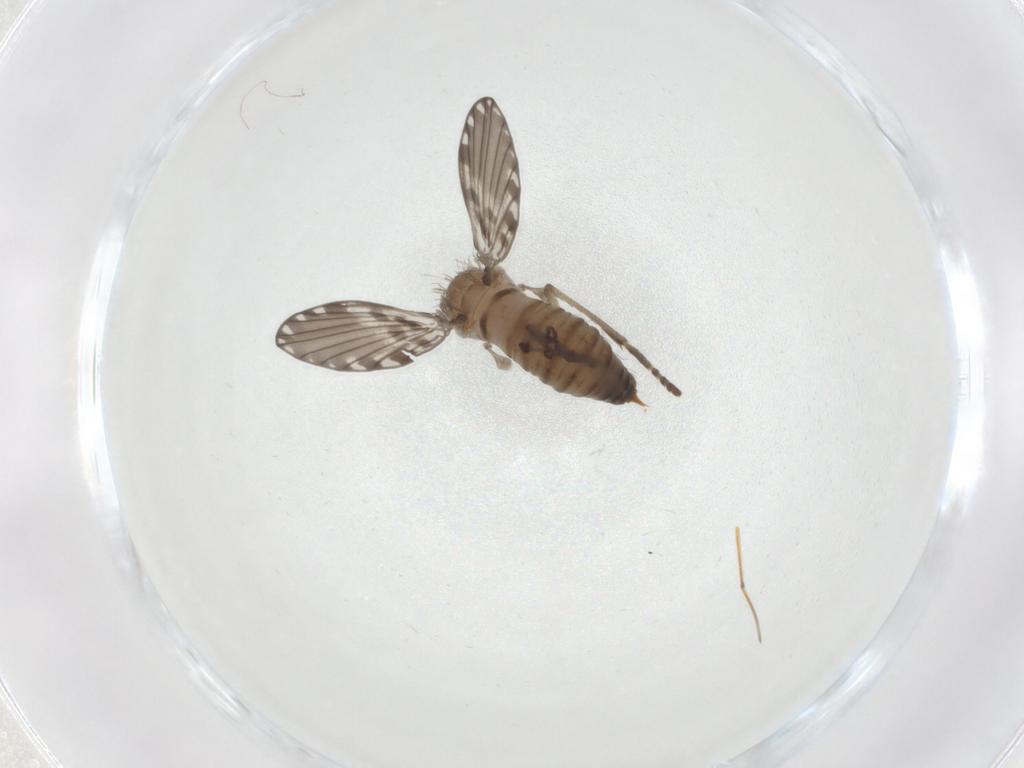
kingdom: Animalia
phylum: Arthropoda
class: Insecta
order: Diptera
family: Psychodidae
